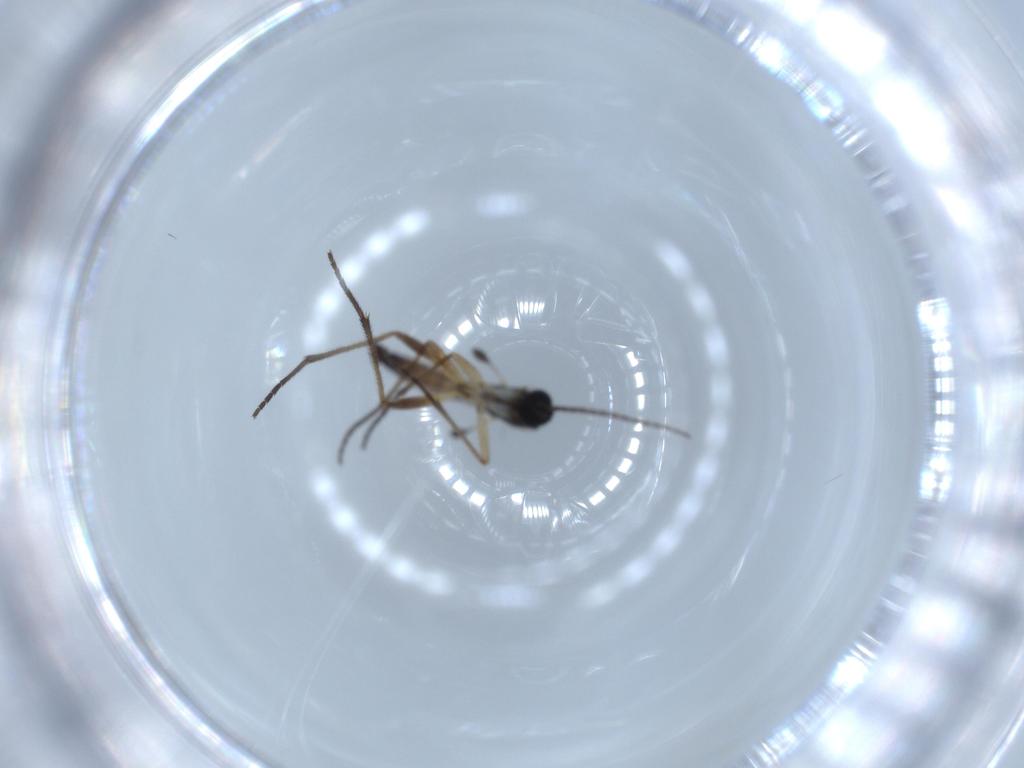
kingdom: Animalia
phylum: Arthropoda
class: Insecta
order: Diptera
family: Sciaridae
